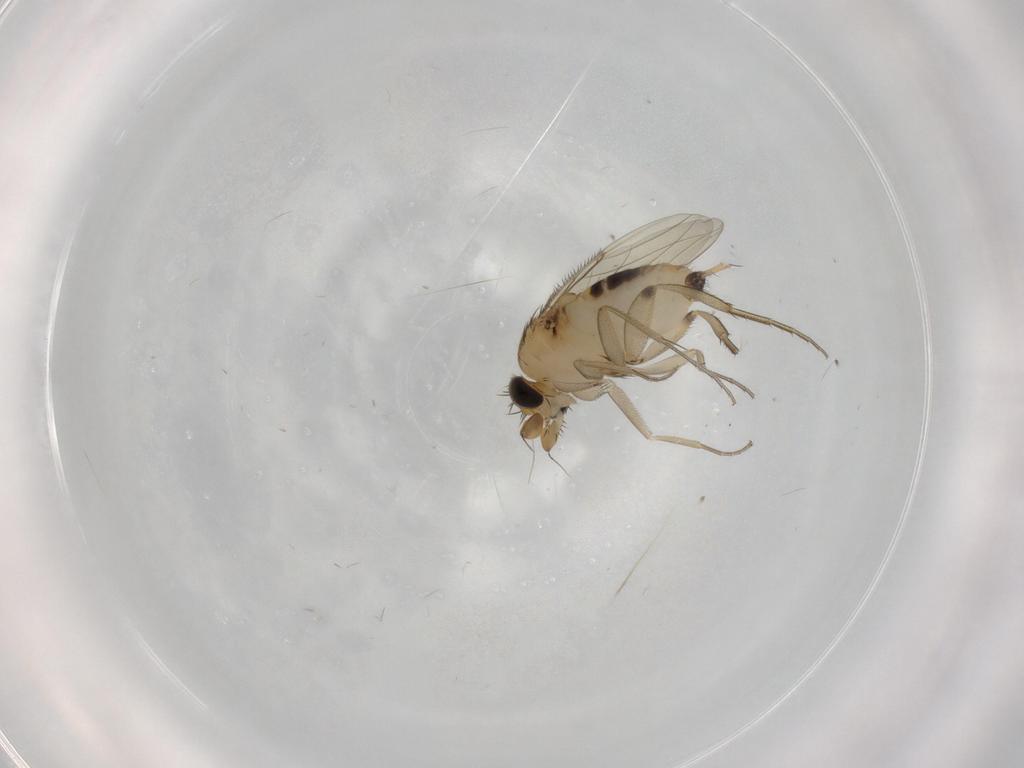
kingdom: Animalia
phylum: Arthropoda
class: Insecta
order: Diptera
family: Phoridae
